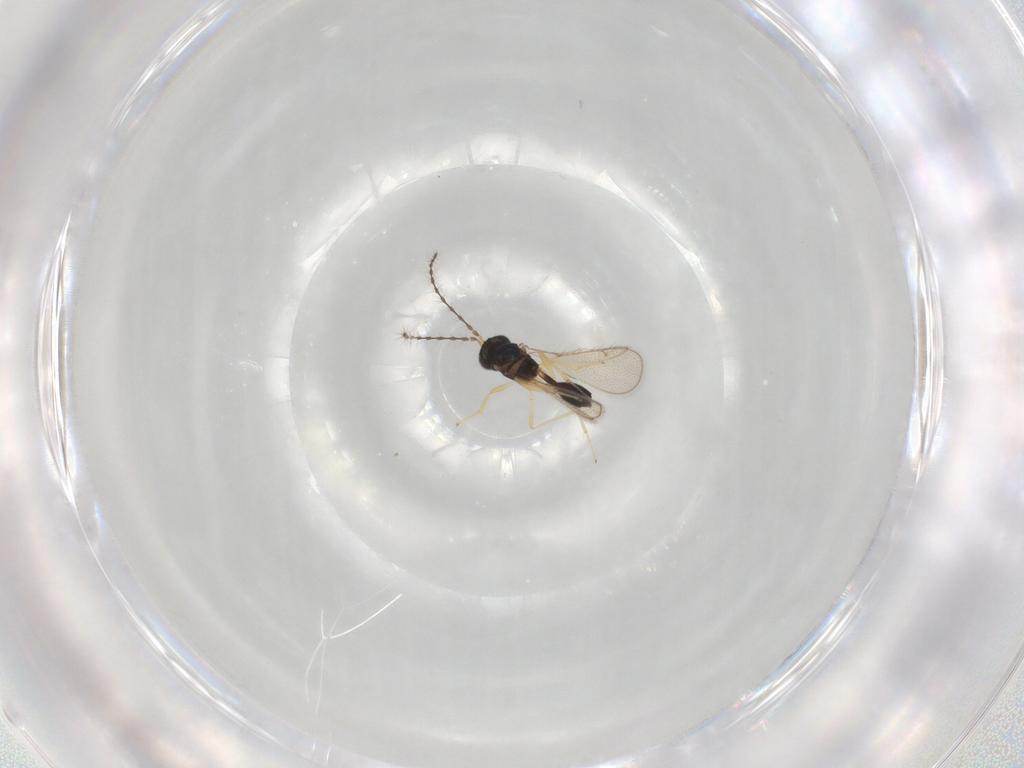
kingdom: Animalia
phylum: Arthropoda
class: Insecta
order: Hymenoptera
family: Diparidae
